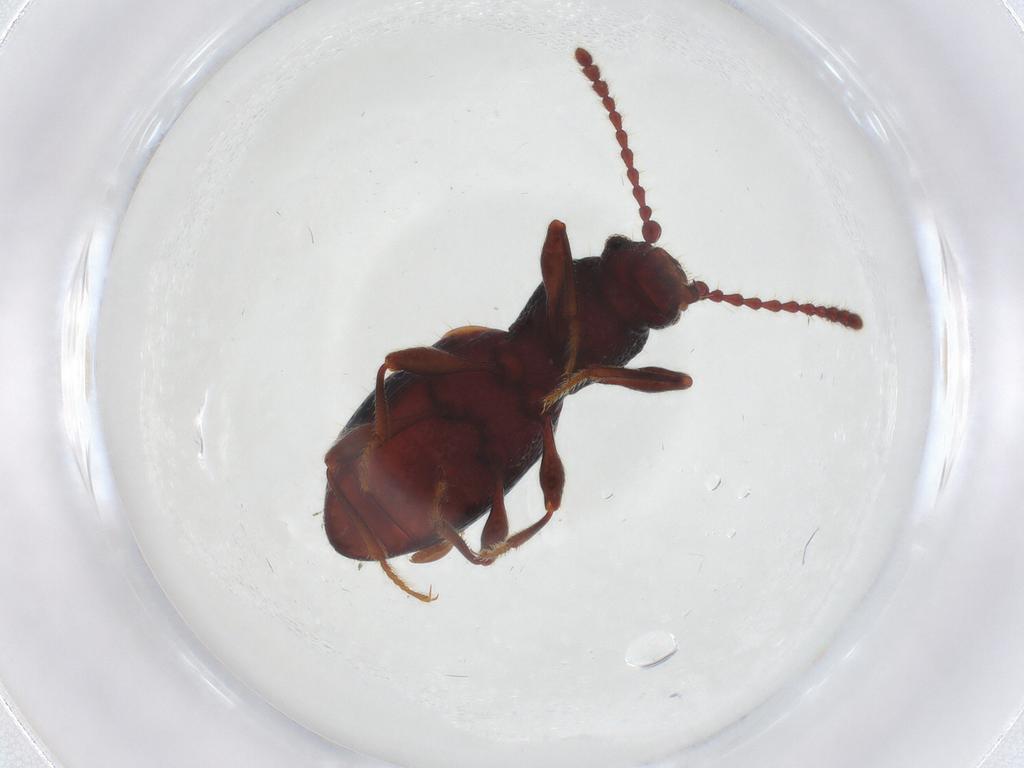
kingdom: Animalia
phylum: Arthropoda
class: Insecta
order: Coleoptera
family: Ptinidae
